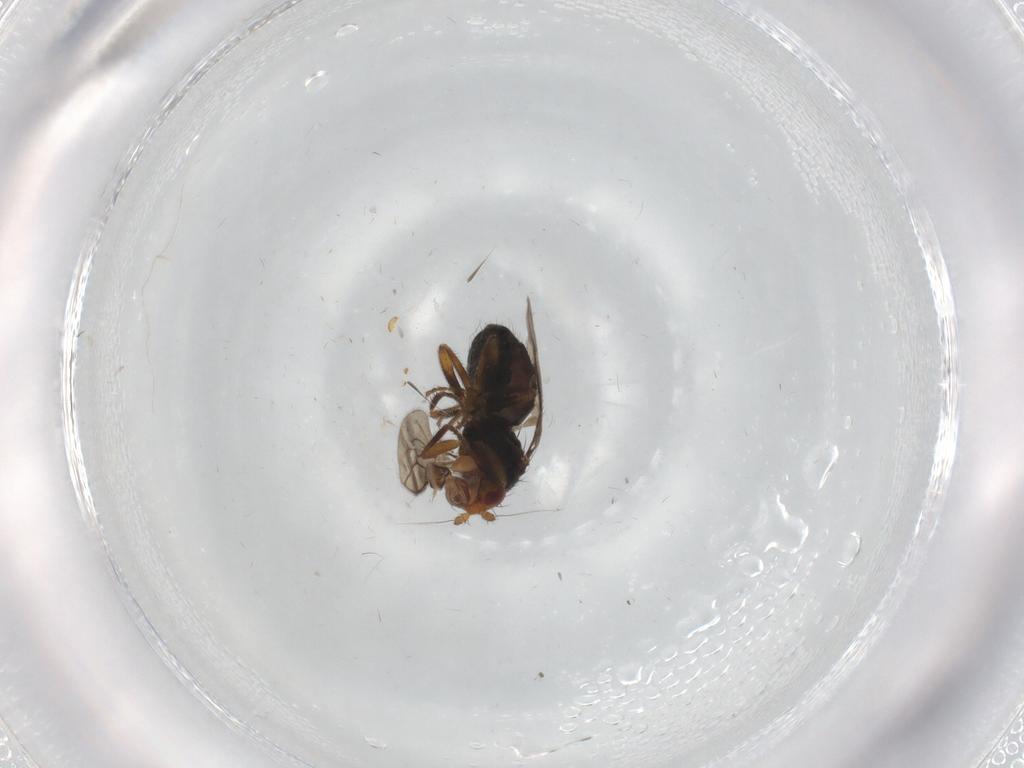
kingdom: Animalia
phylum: Arthropoda
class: Insecta
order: Diptera
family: Sphaeroceridae
